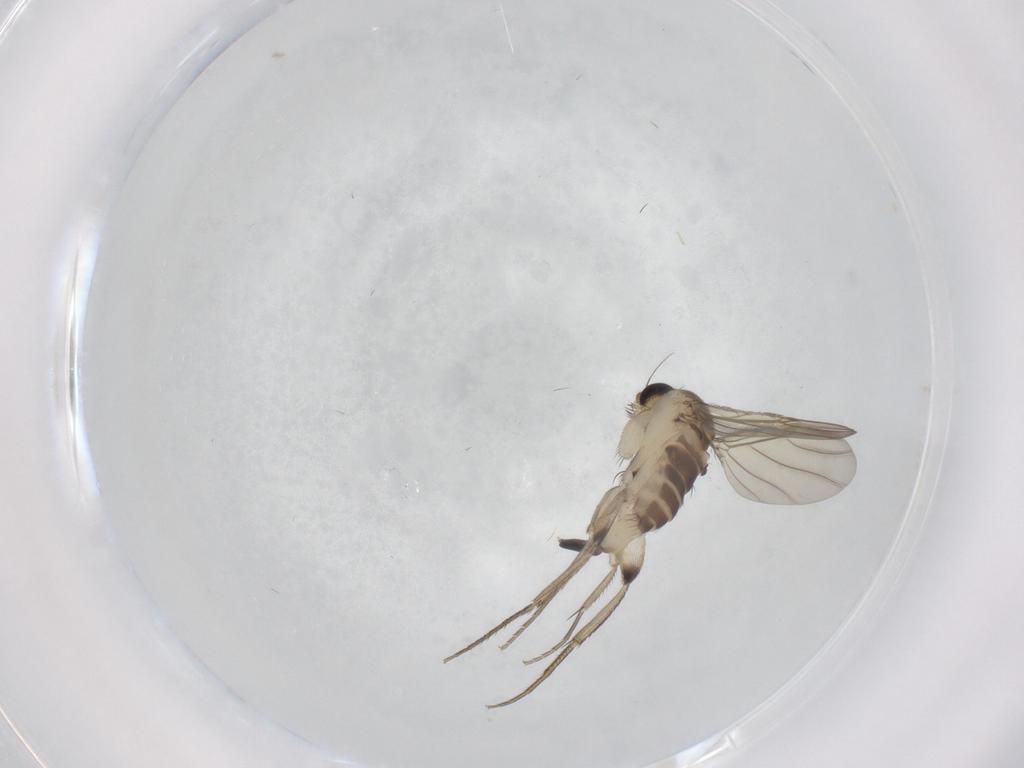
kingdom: Animalia
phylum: Arthropoda
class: Insecta
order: Diptera
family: Phoridae
